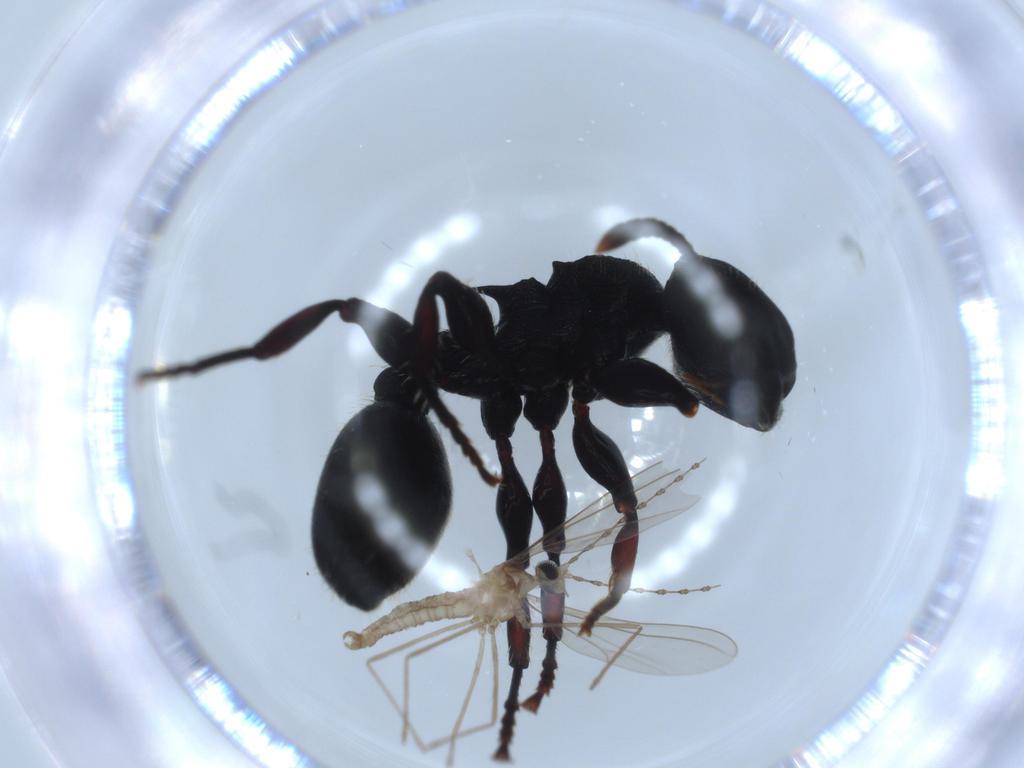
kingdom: Animalia
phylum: Arthropoda
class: Insecta
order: Hymenoptera
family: Formicidae
